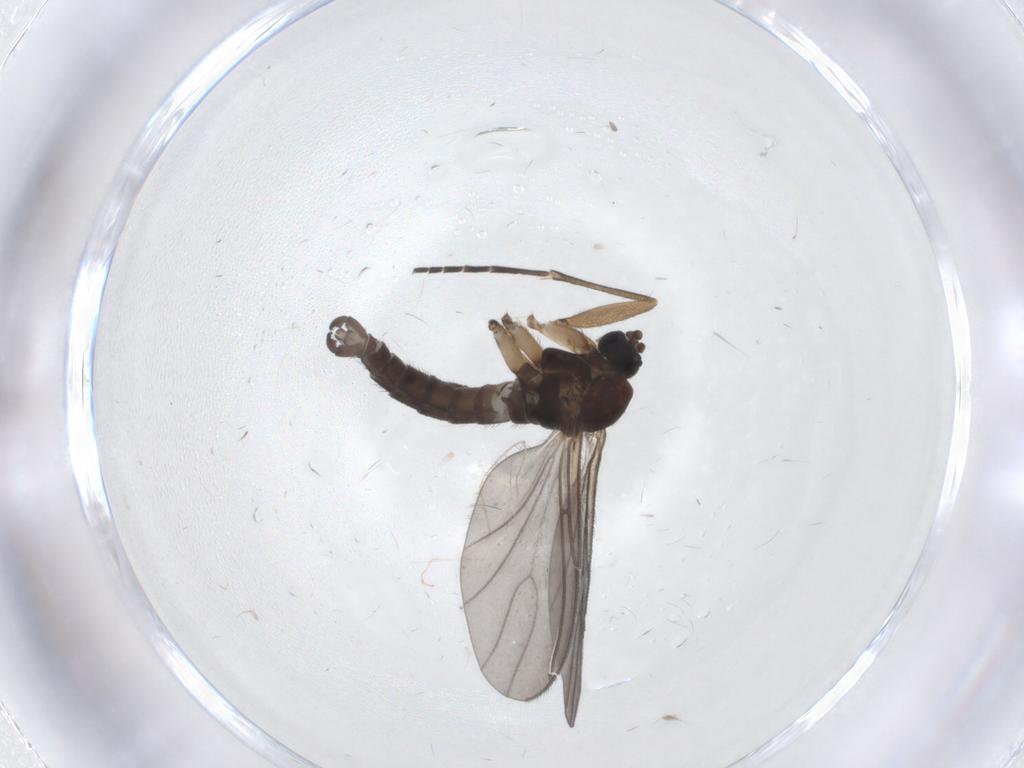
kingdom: Animalia
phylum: Arthropoda
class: Insecta
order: Diptera
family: Sciaridae
